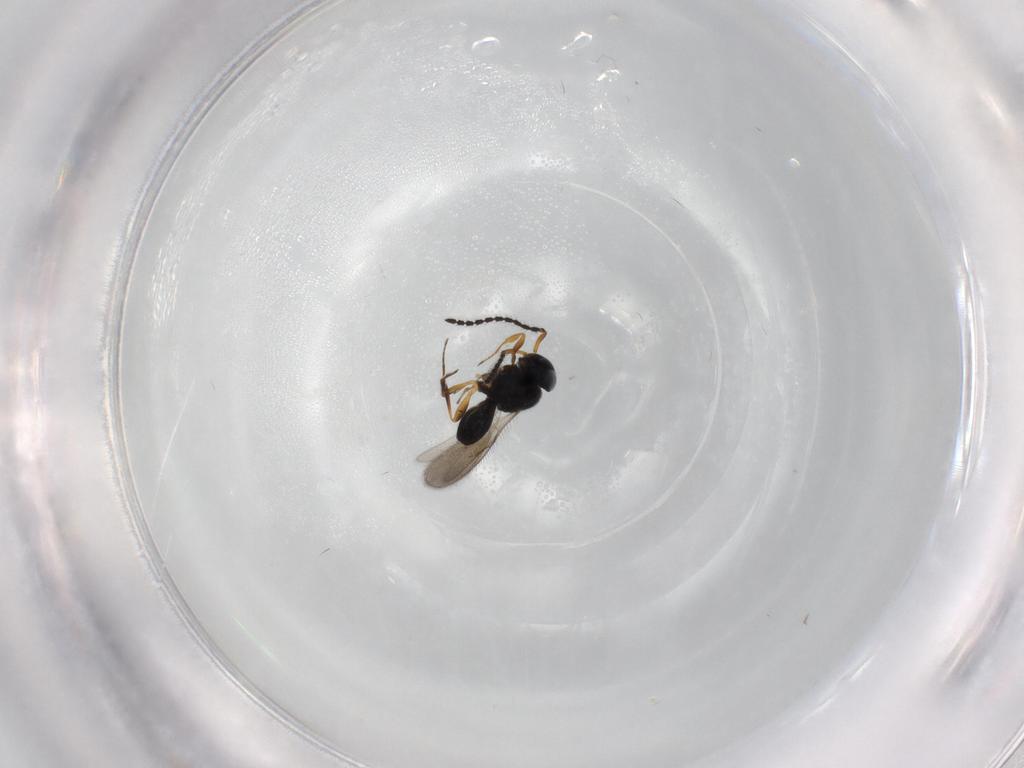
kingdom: Animalia
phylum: Arthropoda
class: Insecta
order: Hymenoptera
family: Scelionidae
